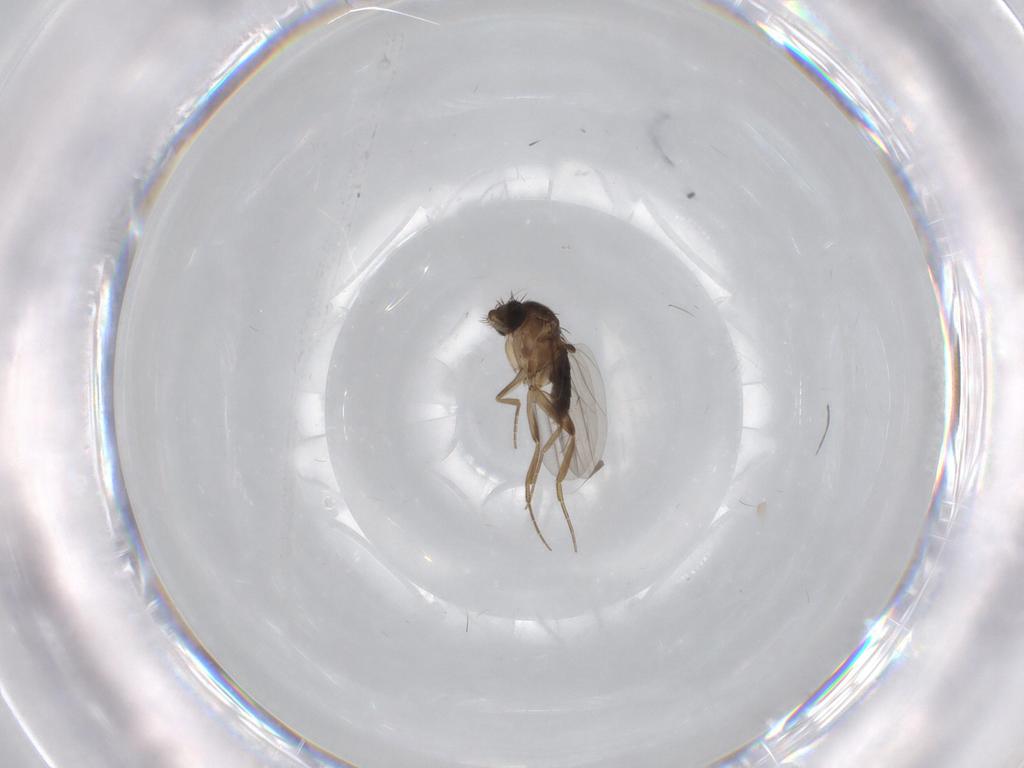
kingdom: Animalia
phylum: Arthropoda
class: Insecta
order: Diptera
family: Phoridae
